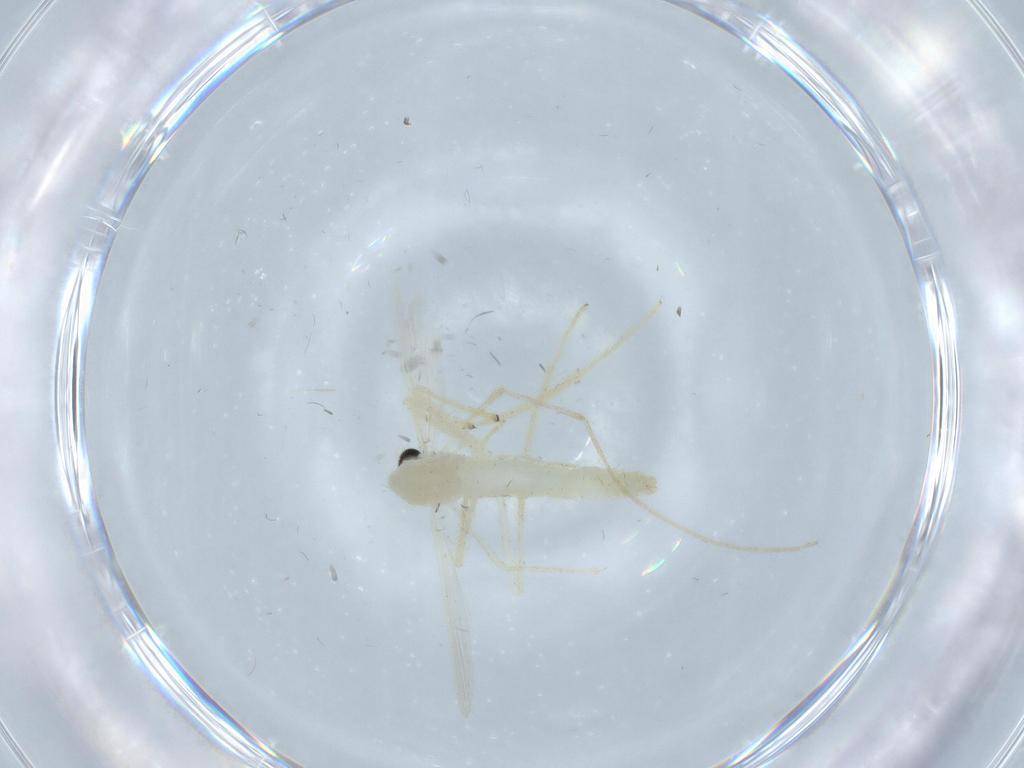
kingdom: Animalia
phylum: Arthropoda
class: Insecta
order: Diptera
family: Chironomidae
